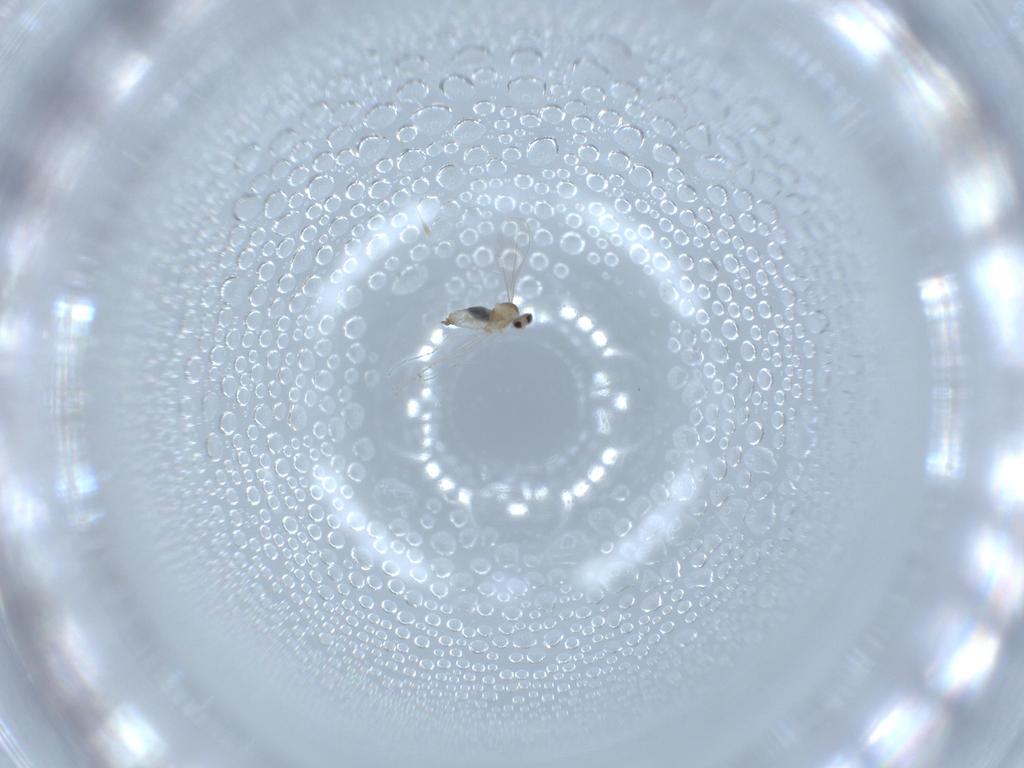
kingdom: Animalia
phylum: Arthropoda
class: Insecta
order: Diptera
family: Cecidomyiidae
